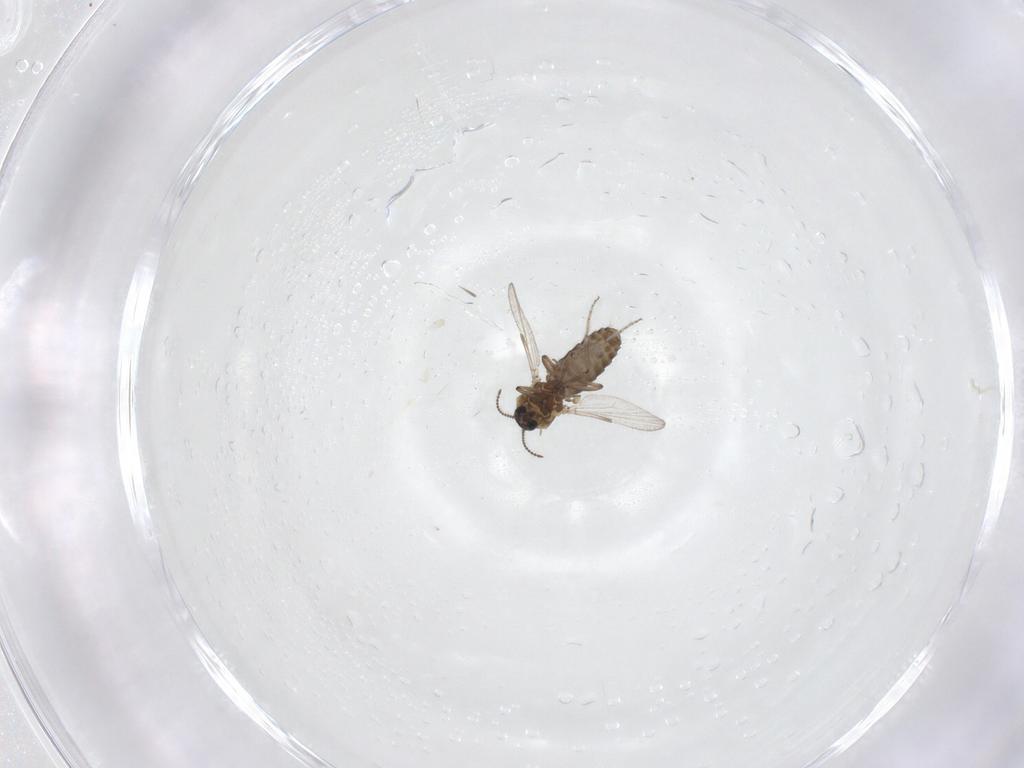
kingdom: Animalia
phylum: Arthropoda
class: Insecta
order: Diptera
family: Ceratopogonidae
